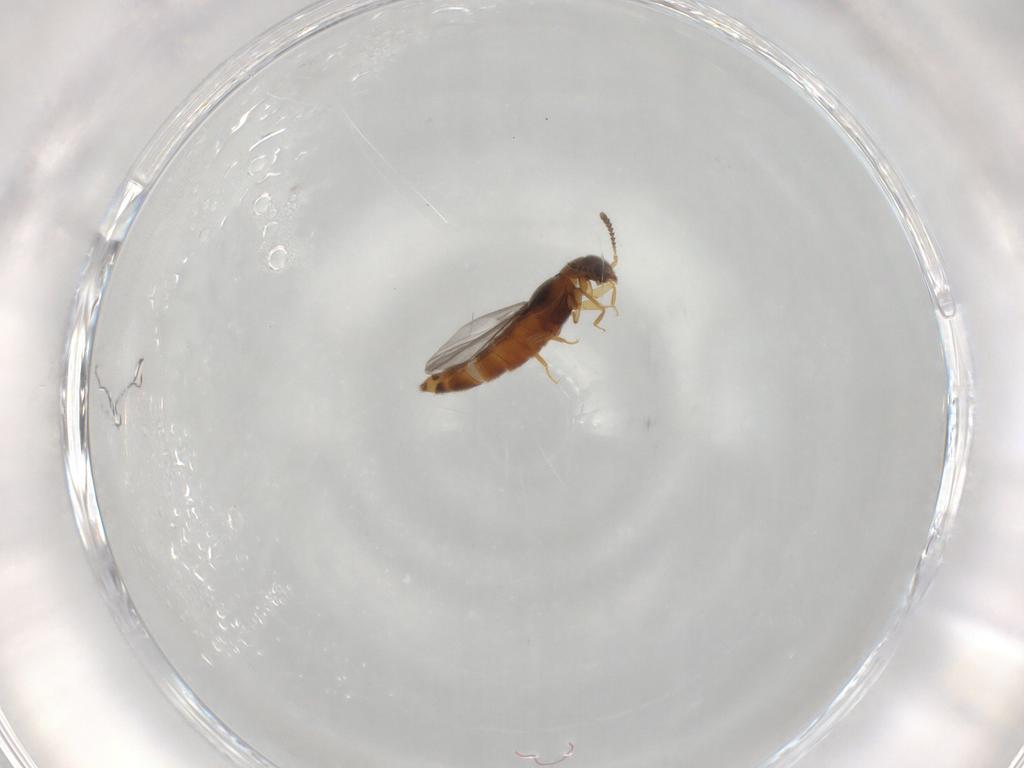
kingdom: Animalia
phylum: Arthropoda
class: Insecta
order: Coleoptera
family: Staphylinidae
